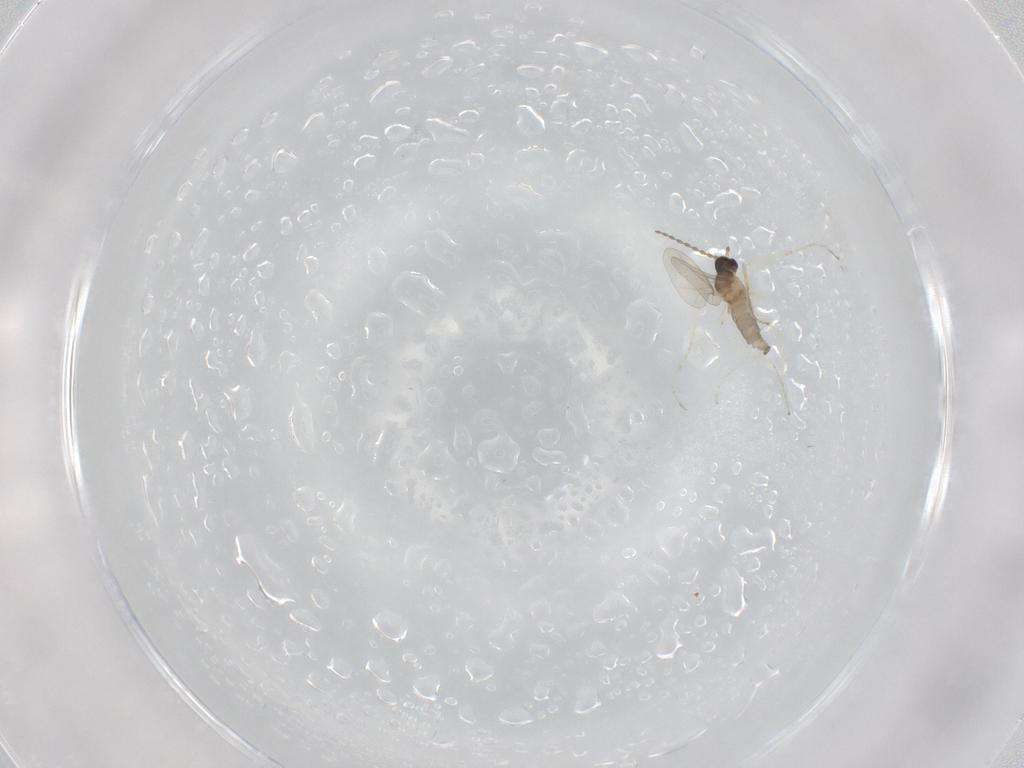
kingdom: Animalia
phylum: Arthropoda
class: Insecta
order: Diptera
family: Cecidomyiidae
